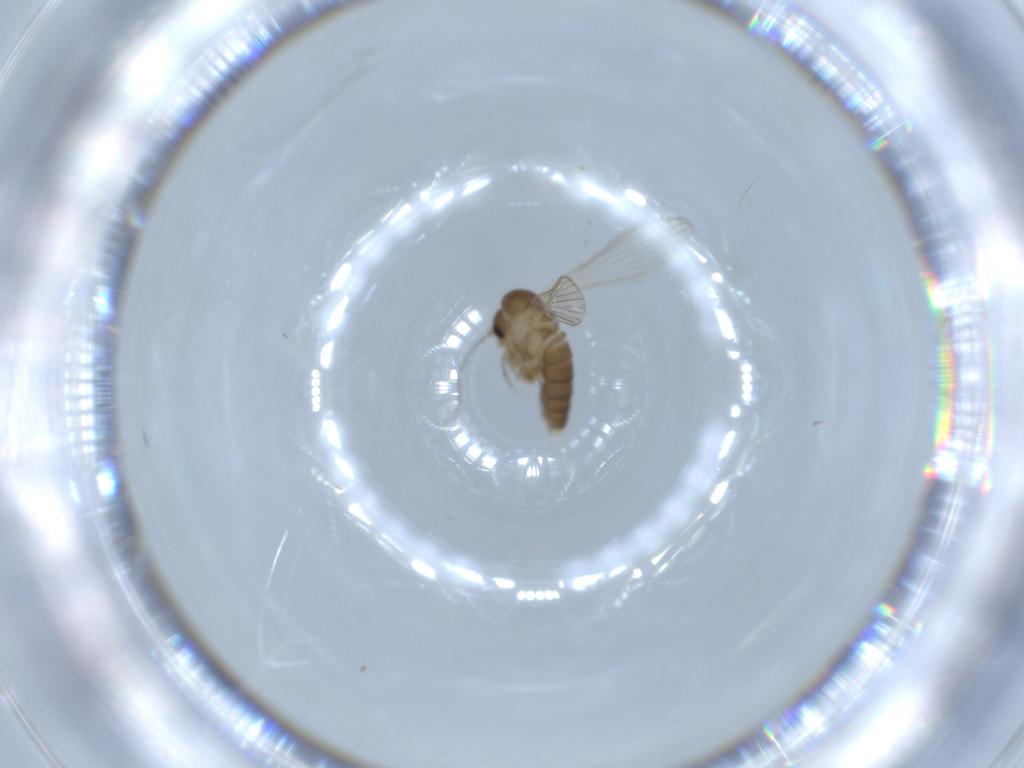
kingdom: Animalia
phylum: Arthropoda
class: Insecta
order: Diptera
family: Psychodidae
